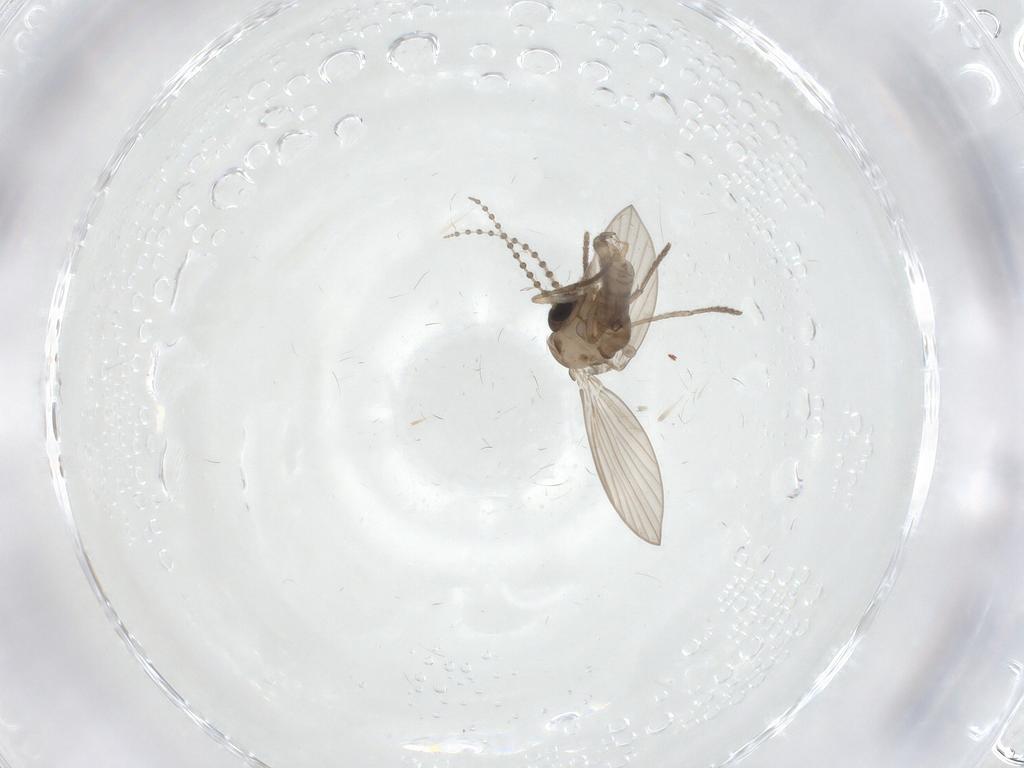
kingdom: Animalia
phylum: Arthropoda
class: Insecta
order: Diptera
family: Psychodidae
